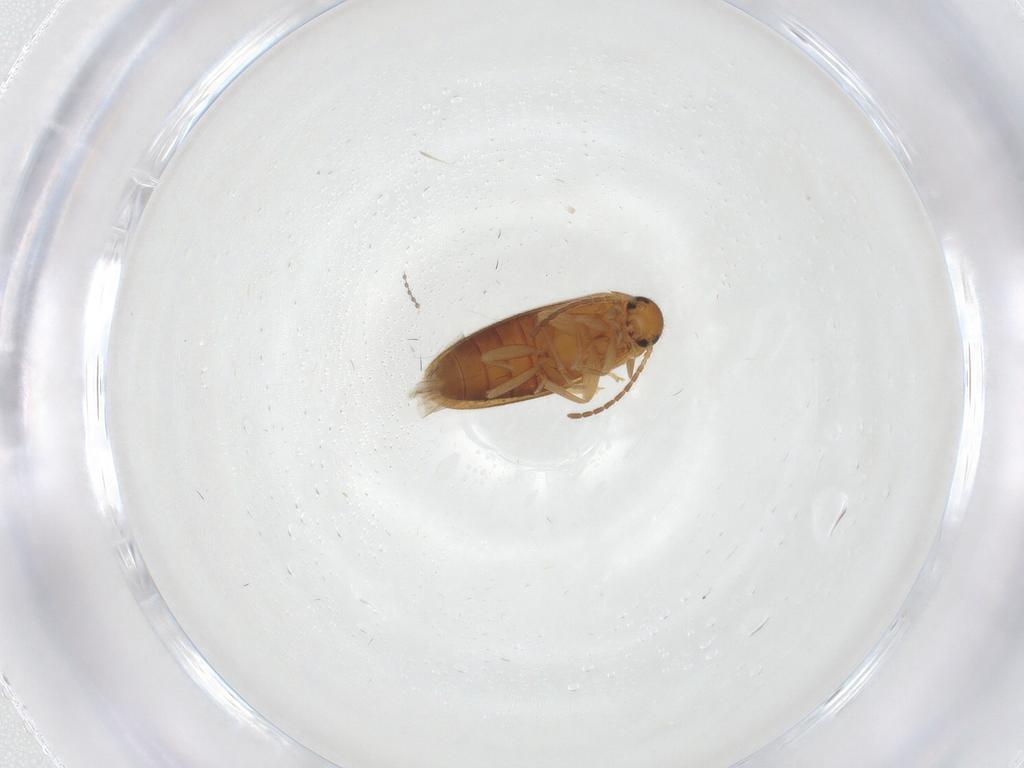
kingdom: Animalia
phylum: Arthropoda
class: Insecta
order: Coleoptera
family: Scraptiidae
